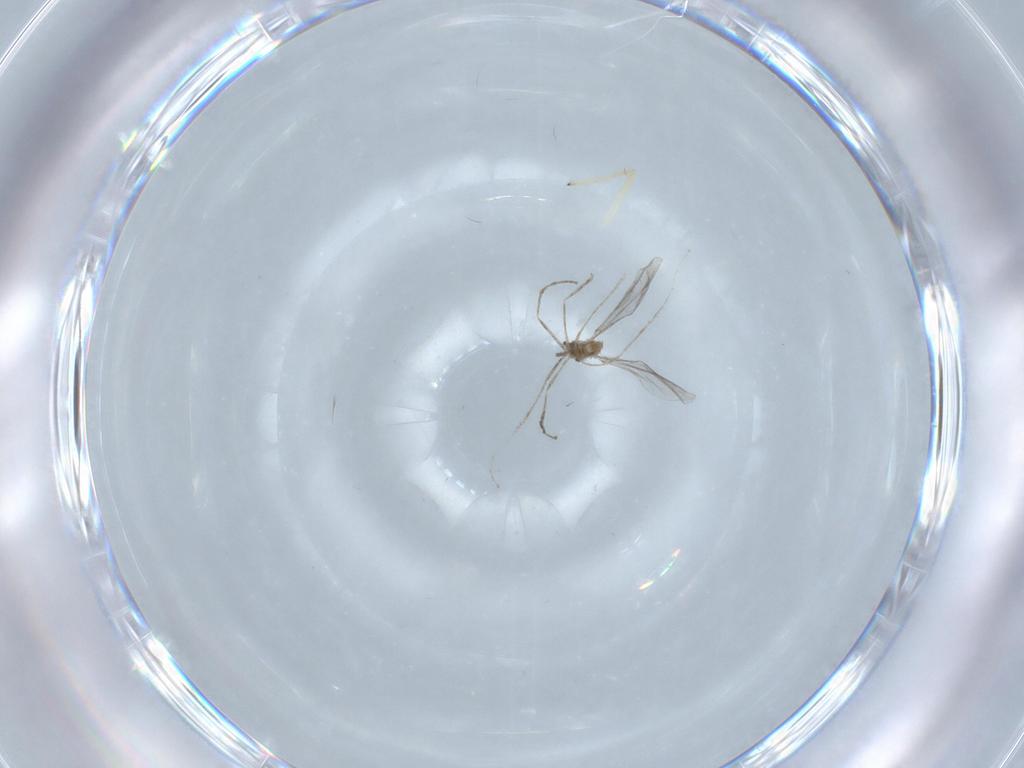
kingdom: Animalia
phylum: Arthropoda
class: Insecta
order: Diptera
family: Chironomidae
